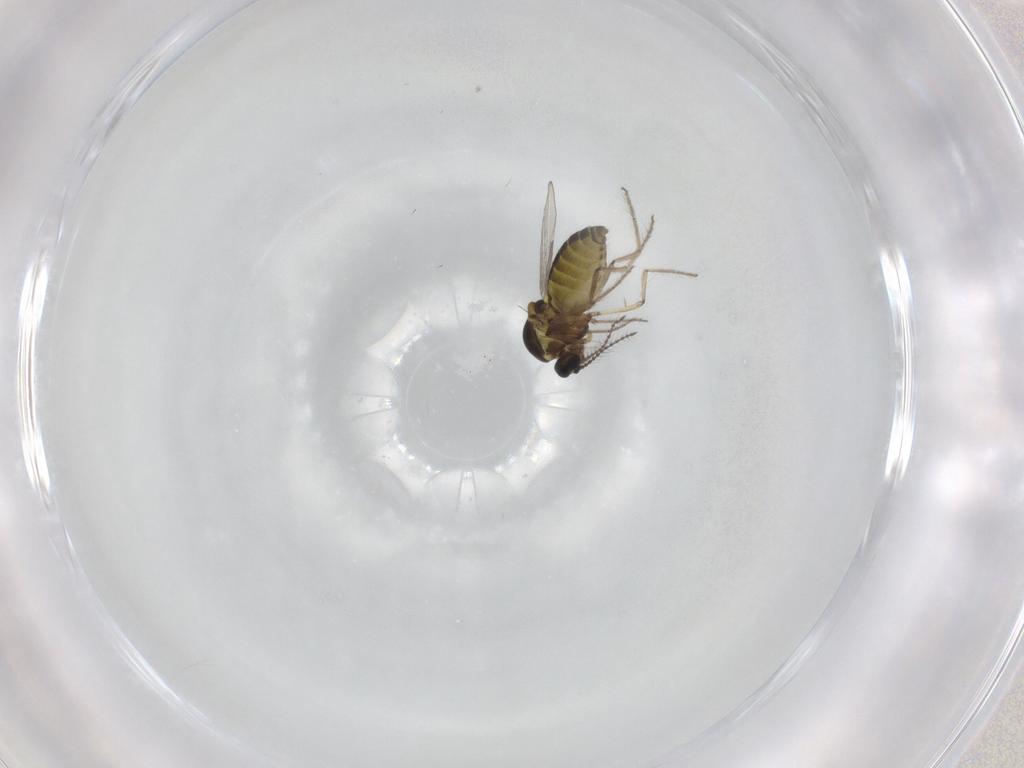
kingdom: Animalia
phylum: Arthropoda
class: Insecta
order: Diptera
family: Ceratopogonidae
